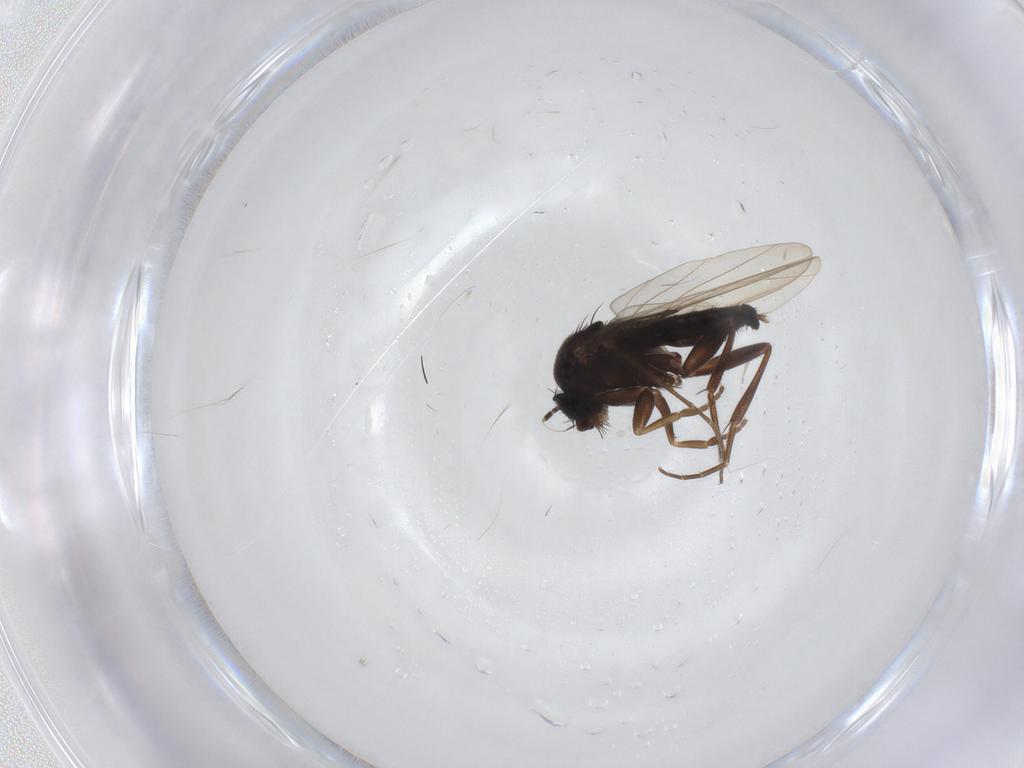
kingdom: Animalia
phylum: Arthropoda
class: Insecta
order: Diptera
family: Phoridae
